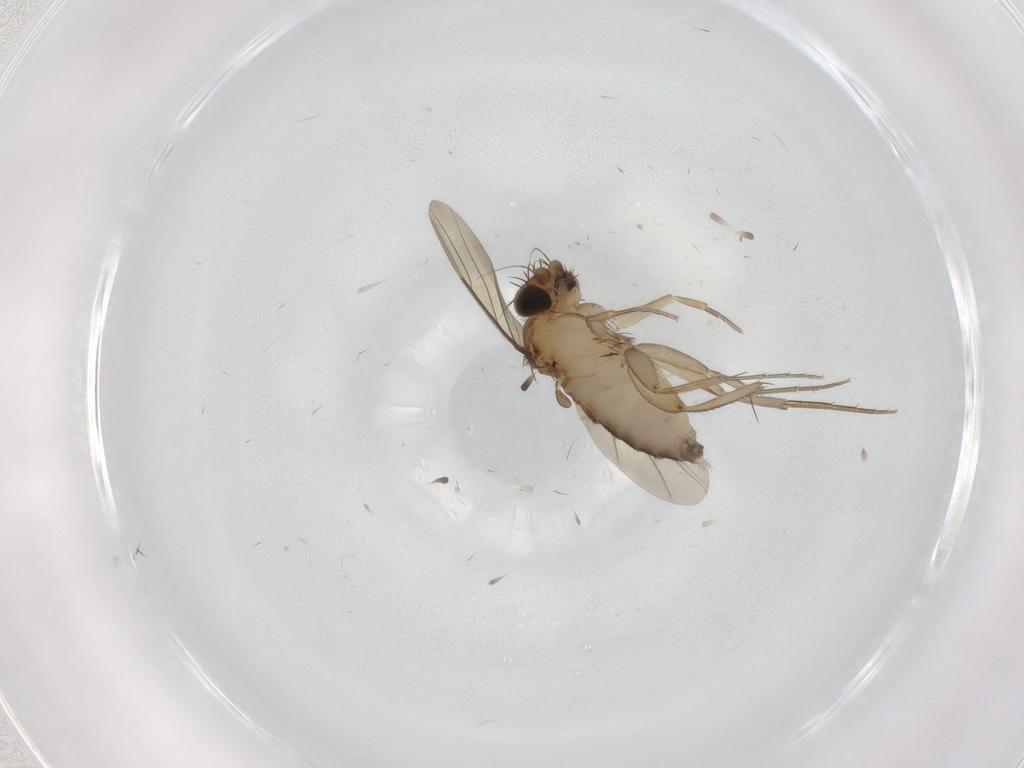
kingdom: Animalia
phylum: Arthropoda
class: Insecta
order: Diptera
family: Phoridae
